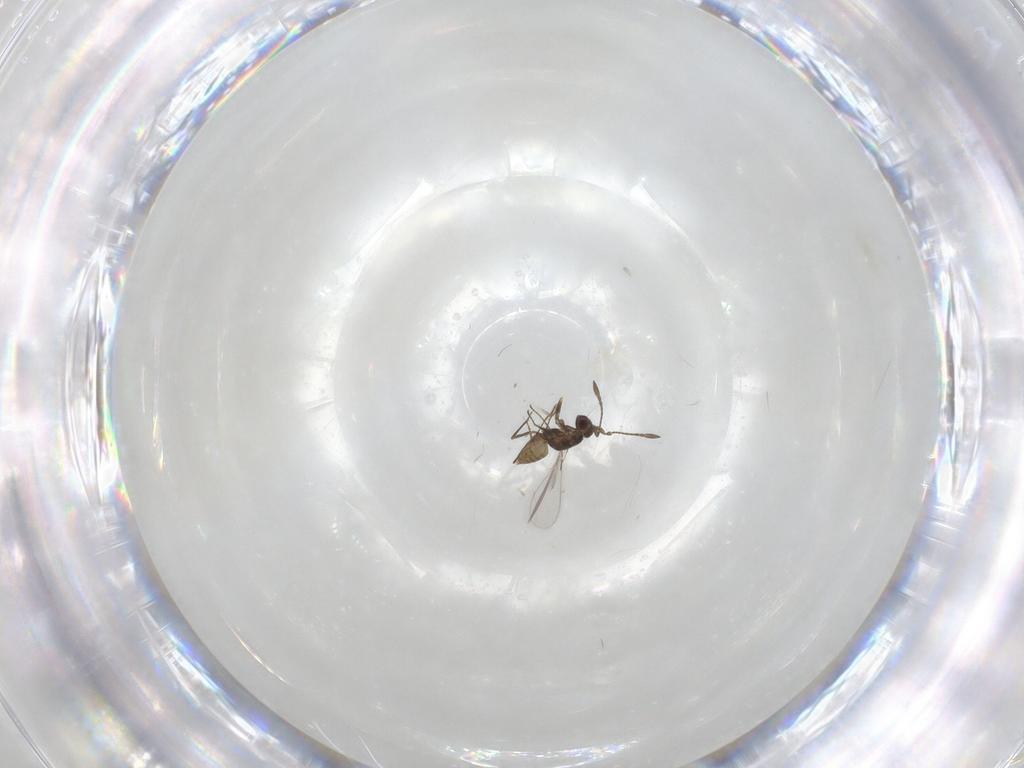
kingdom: Animalia
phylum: Arthropoda
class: Insecta
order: Hymenoptera
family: Mymaridae
